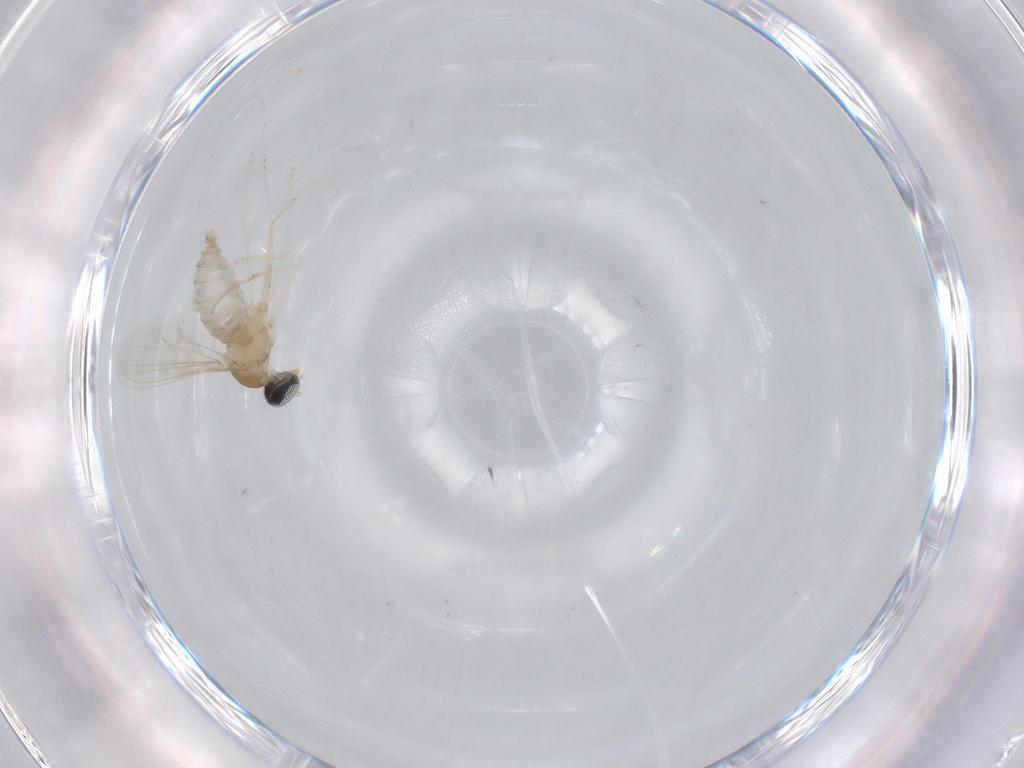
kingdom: Animalia
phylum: Arthropoda
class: Insecta
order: Diptera
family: Cecidomyiidae
